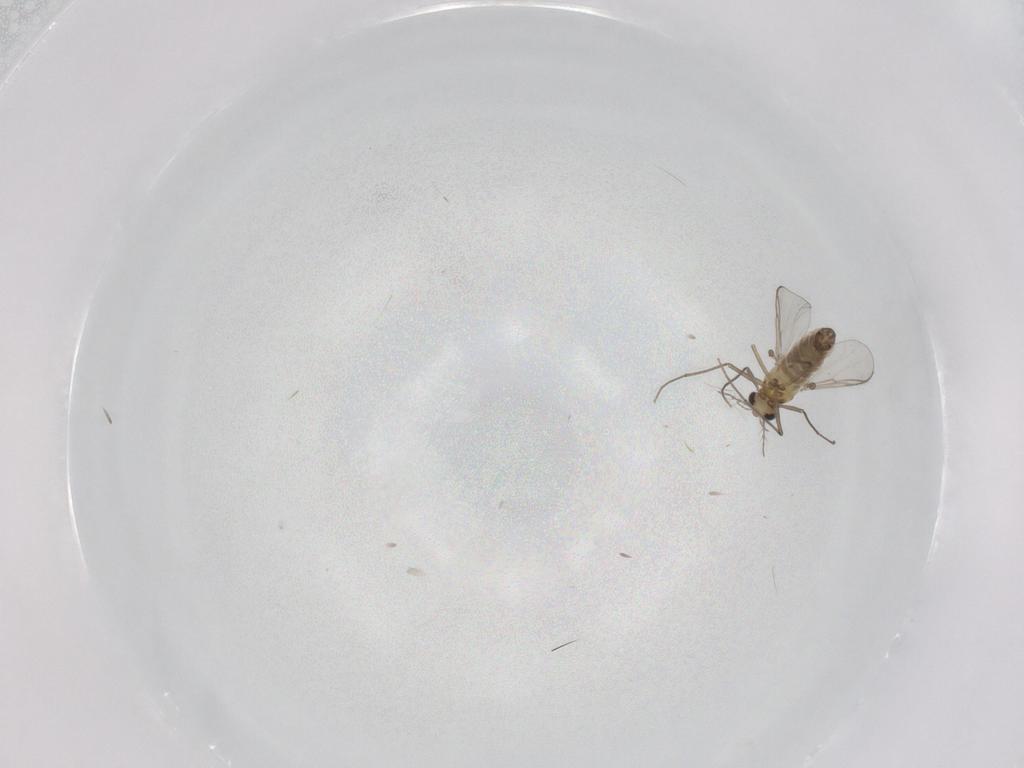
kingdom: Animalia
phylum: Arthropoda
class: Insecta
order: Diptera
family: Chironomidae
